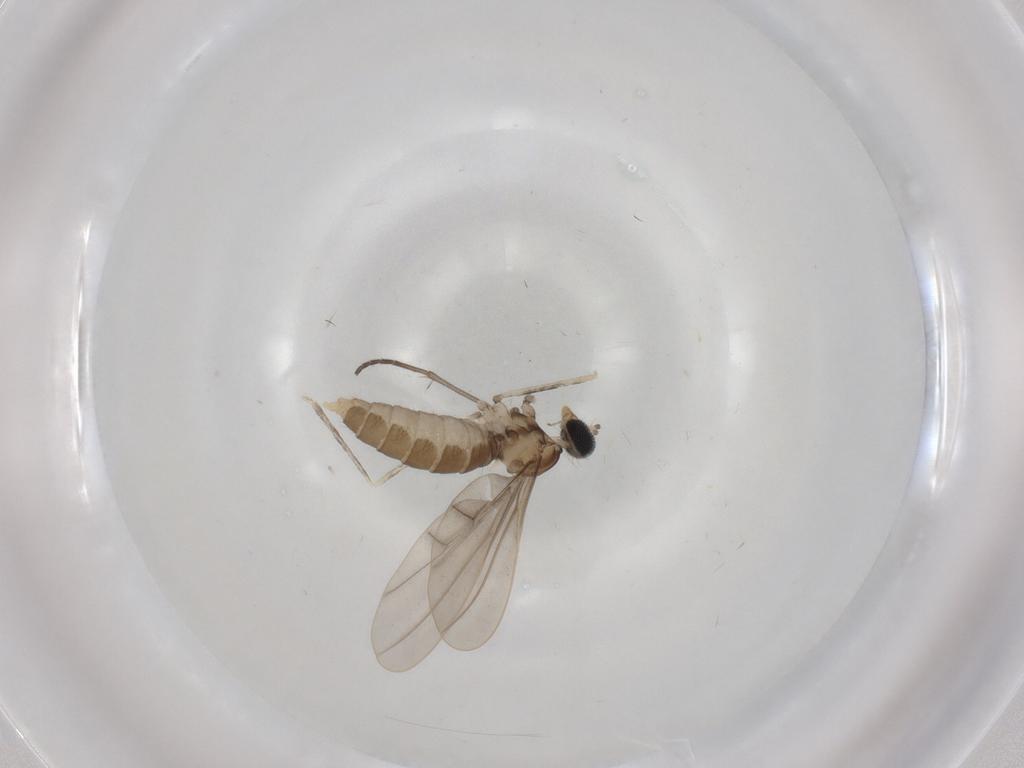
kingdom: Animalia
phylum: Arthropoda
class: Insecta
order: Diptera
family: Cecidomyiidae
